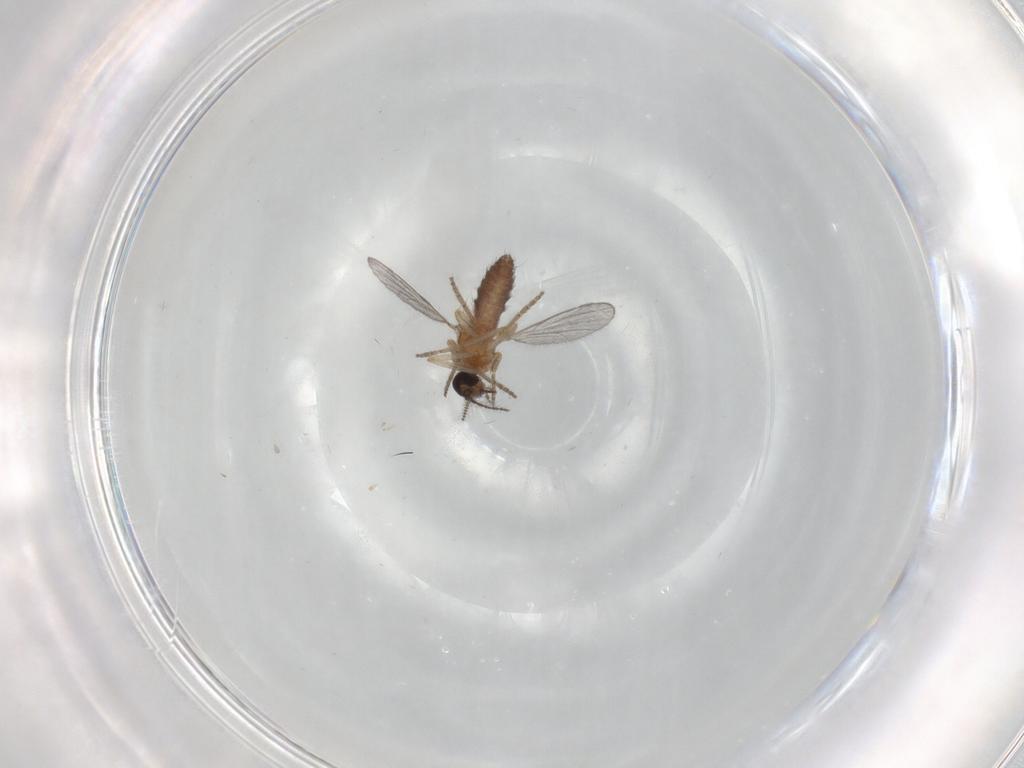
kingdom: Animalia
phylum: Arthropoda
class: Insecta
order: Diptera
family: Ceratopogonidae
